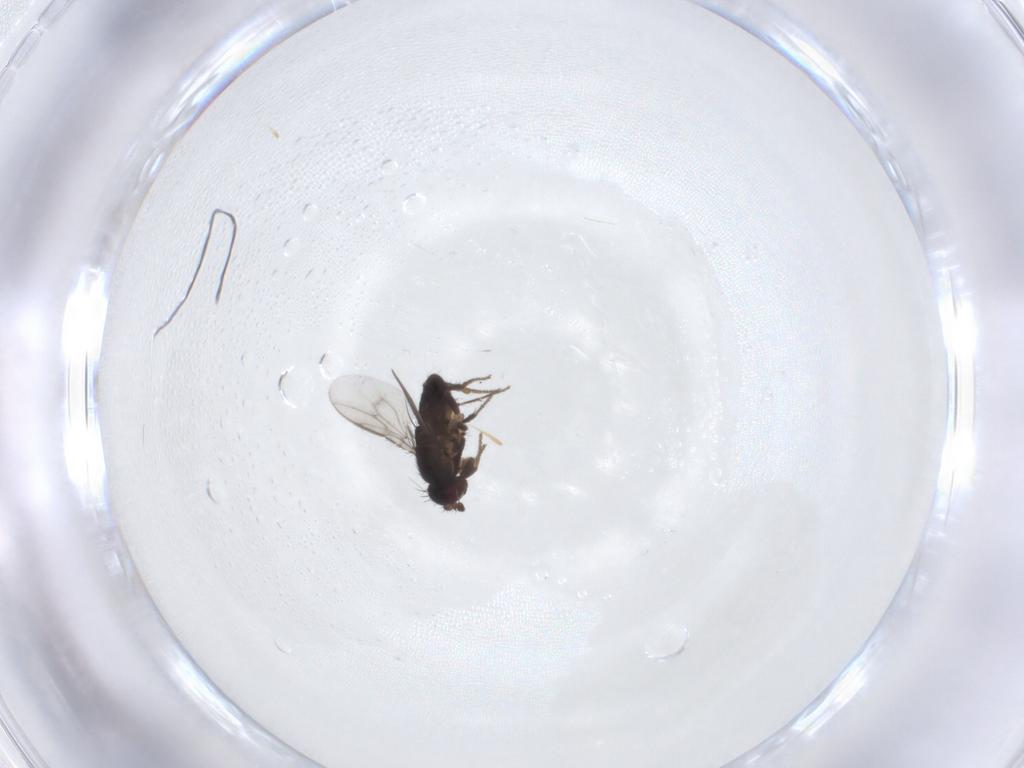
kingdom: Animalia
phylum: Arthropoda
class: Insecta
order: Diptera
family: Sphaeroceridae
